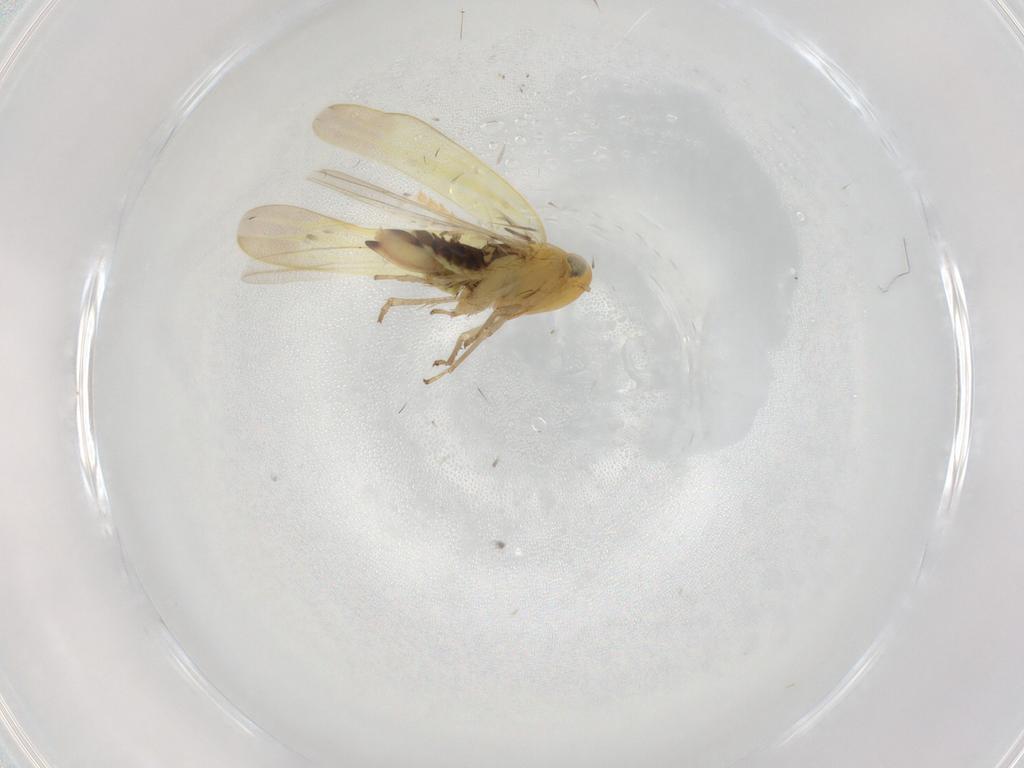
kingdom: Animalia
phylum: Arthropoda
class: Insecta
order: Hemiptera
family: Cicadellidae
